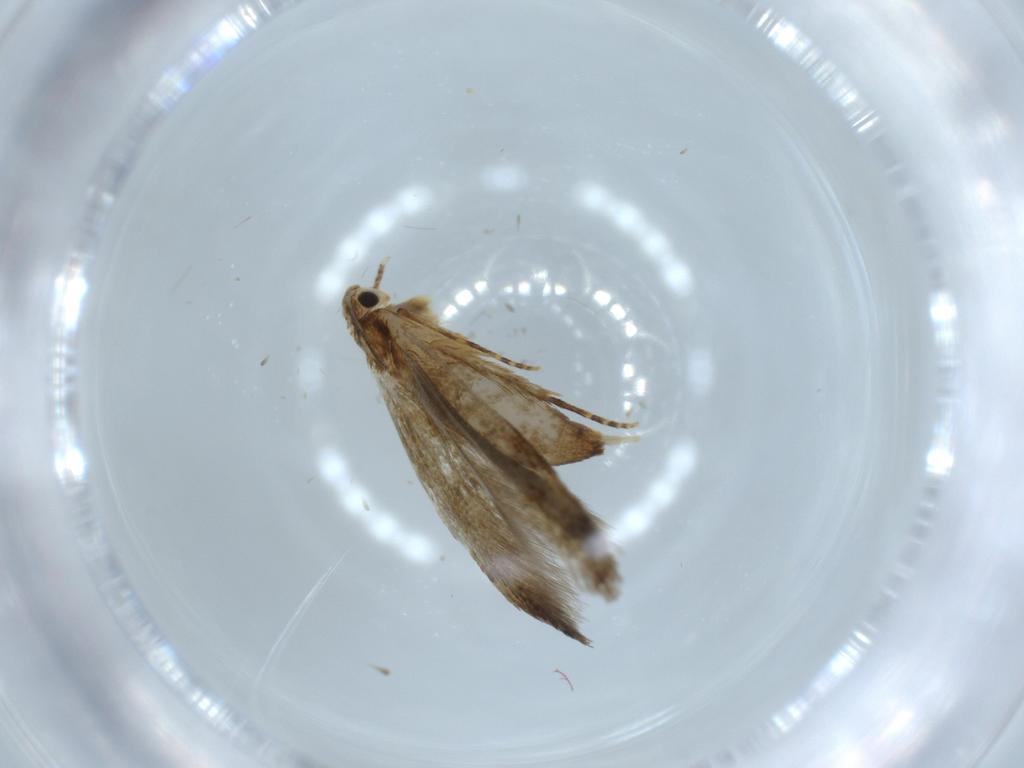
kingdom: Animalia
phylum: Arthropoda
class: Insecta
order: Lepidoptera
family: Tineidae
